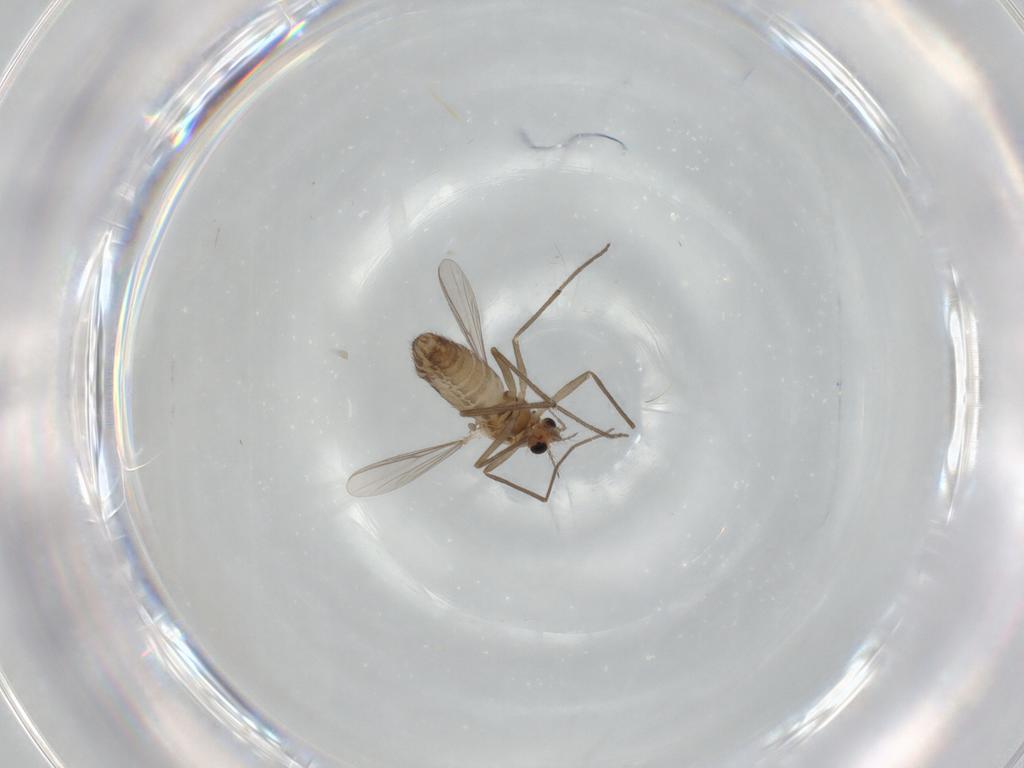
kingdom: Animalia
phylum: Arthropoda
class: Insecta
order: Diptera
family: Chironomidae
